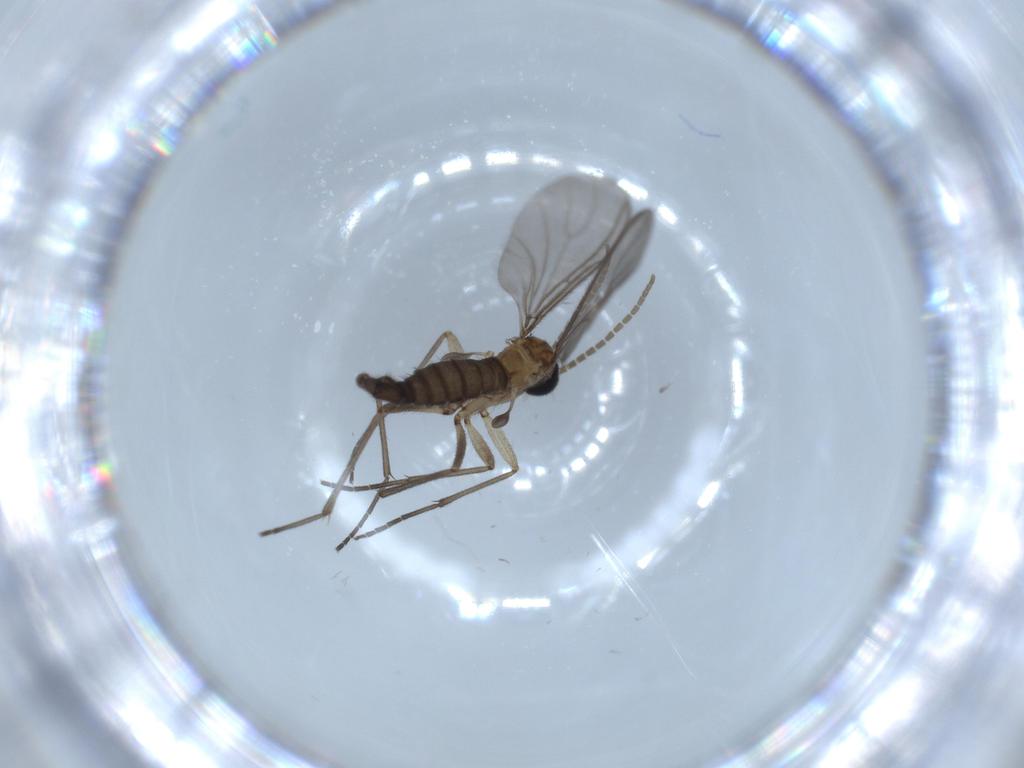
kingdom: Animalia
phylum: Arthropoda
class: Insecta
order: Diptera
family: Sciaridae
